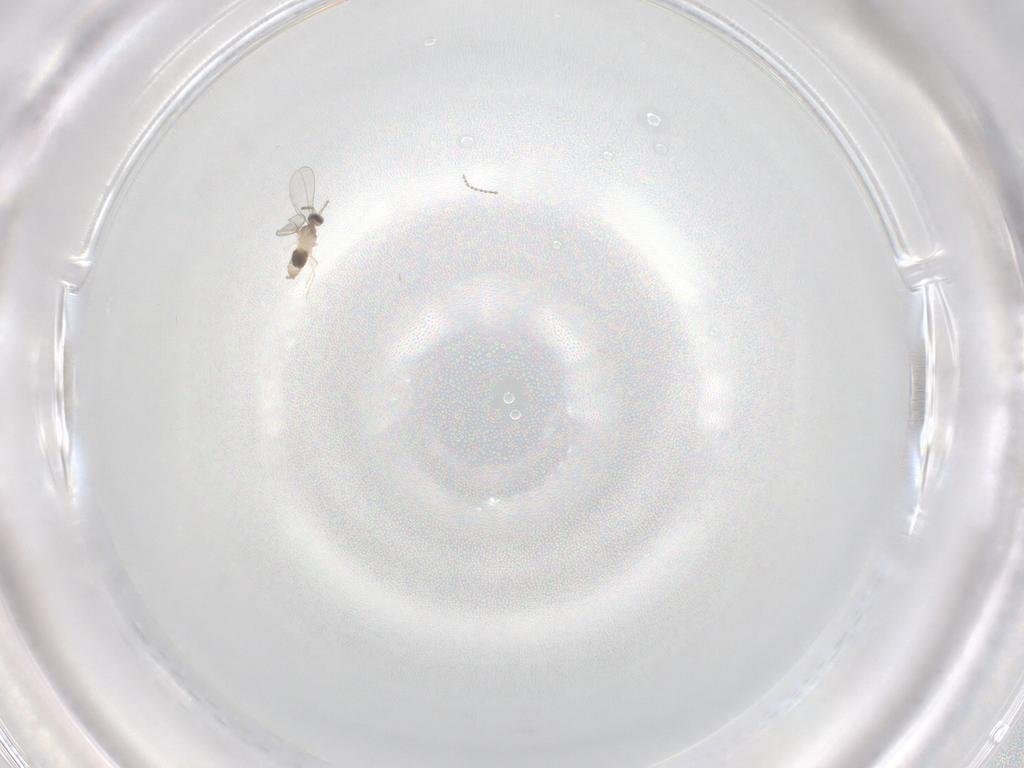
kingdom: Animalia
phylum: Arthropoda
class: Insecta
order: Diptera
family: Cecidomyiidae
